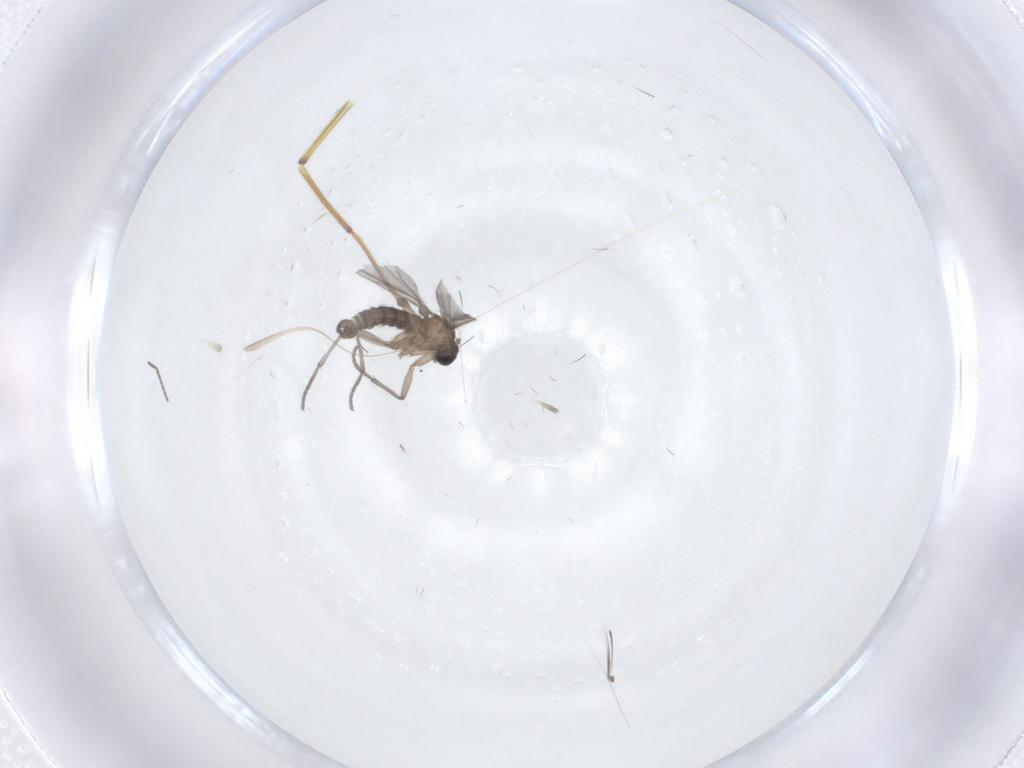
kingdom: Animalia
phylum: Arthropoda
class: Insecta
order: Diptera
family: Sciaridae
